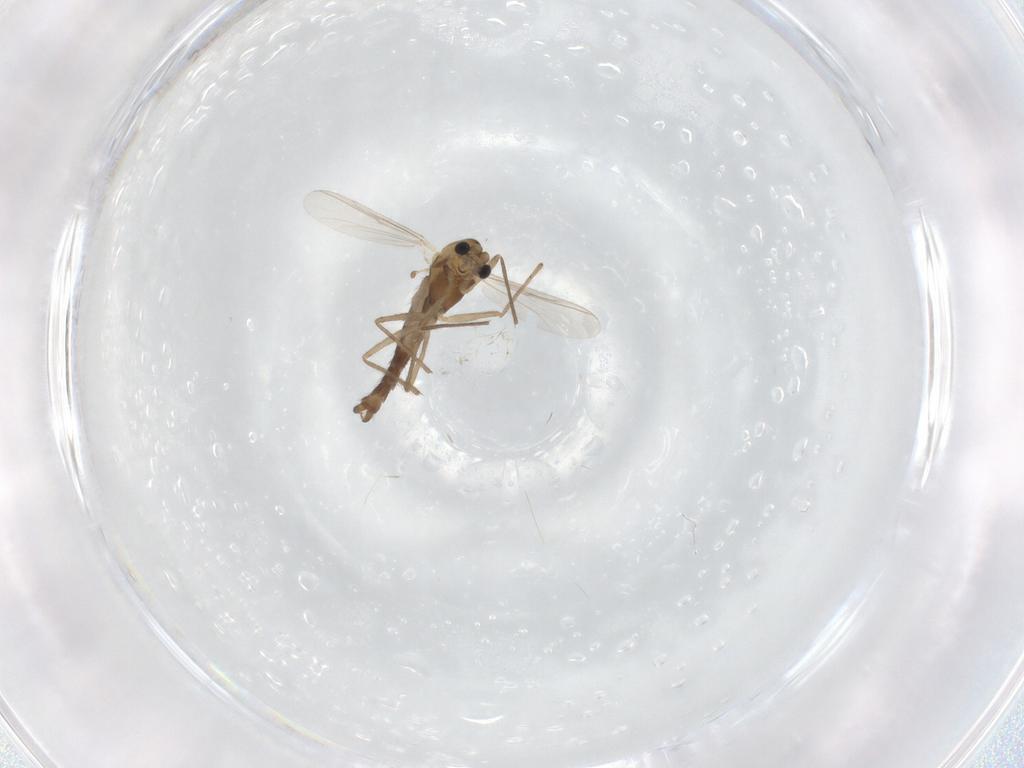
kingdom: Animalia
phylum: Arthropoda
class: Insecta
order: Diptera
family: Chironomidae
